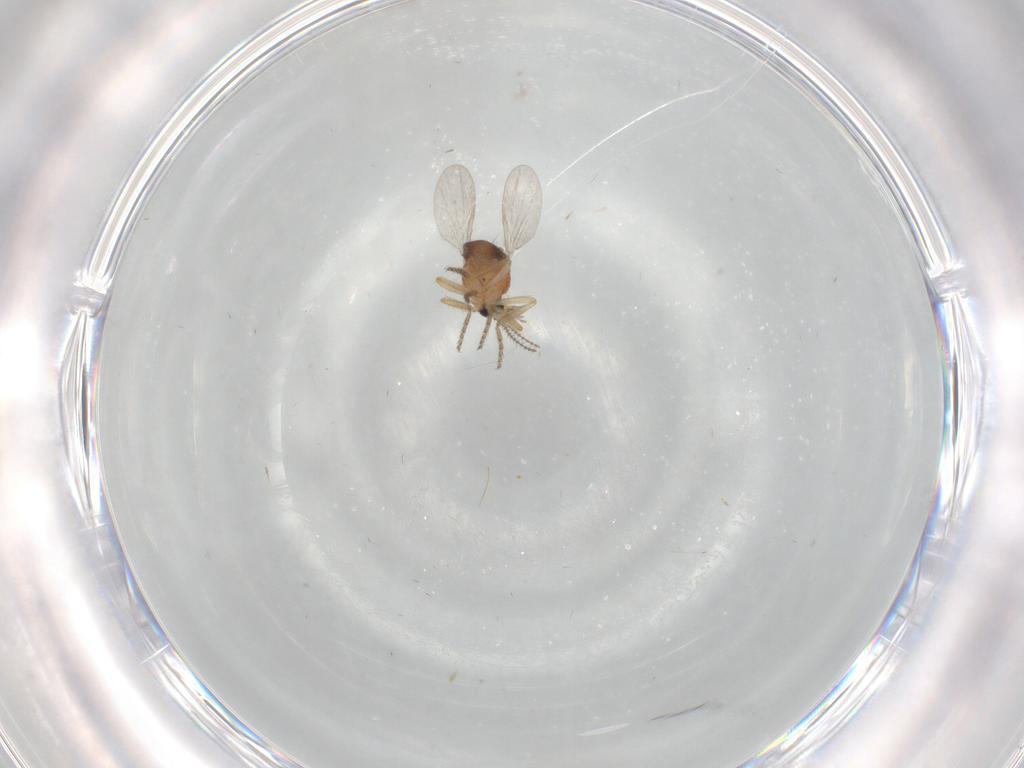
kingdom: Animalia
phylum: Arthropoda
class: Insecta
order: Diptera
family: Ceratopogonidae
